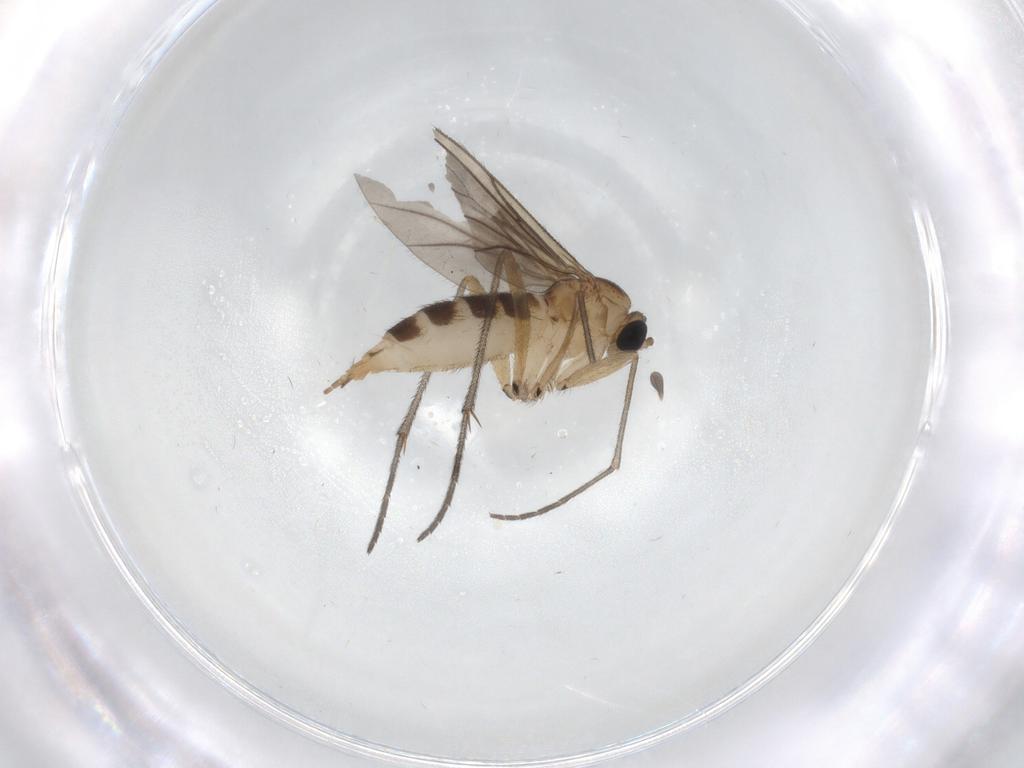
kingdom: Animalia
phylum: Arthropoda
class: Insecta
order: Diptera
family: Sciaridae
